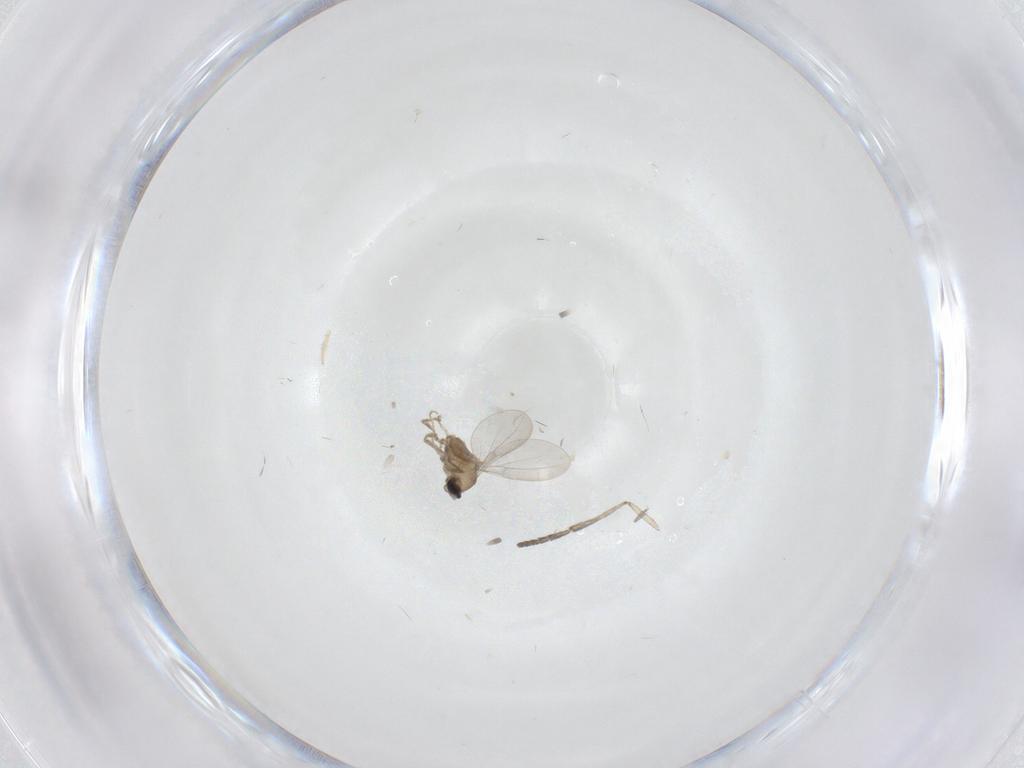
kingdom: Animalia
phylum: Arthropoda
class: Insecta
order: Diptera
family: Cecidomyiidae
